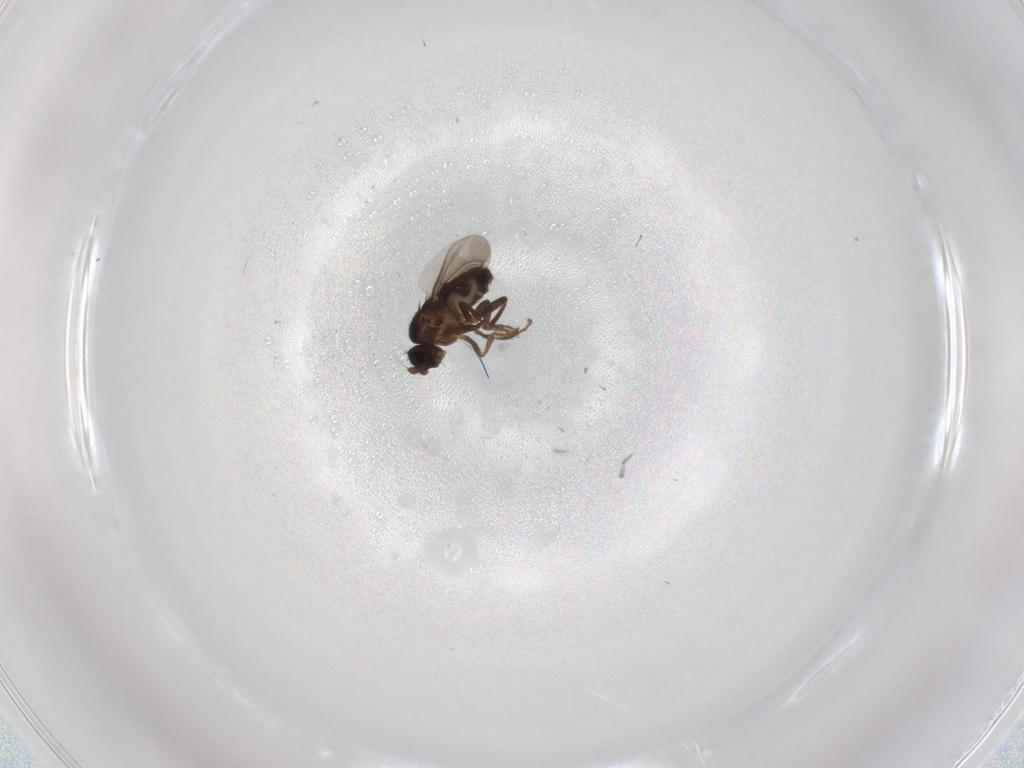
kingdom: Animalia
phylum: Arthropoda
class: Insecta
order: Diptera
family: Sphaeroceridae
